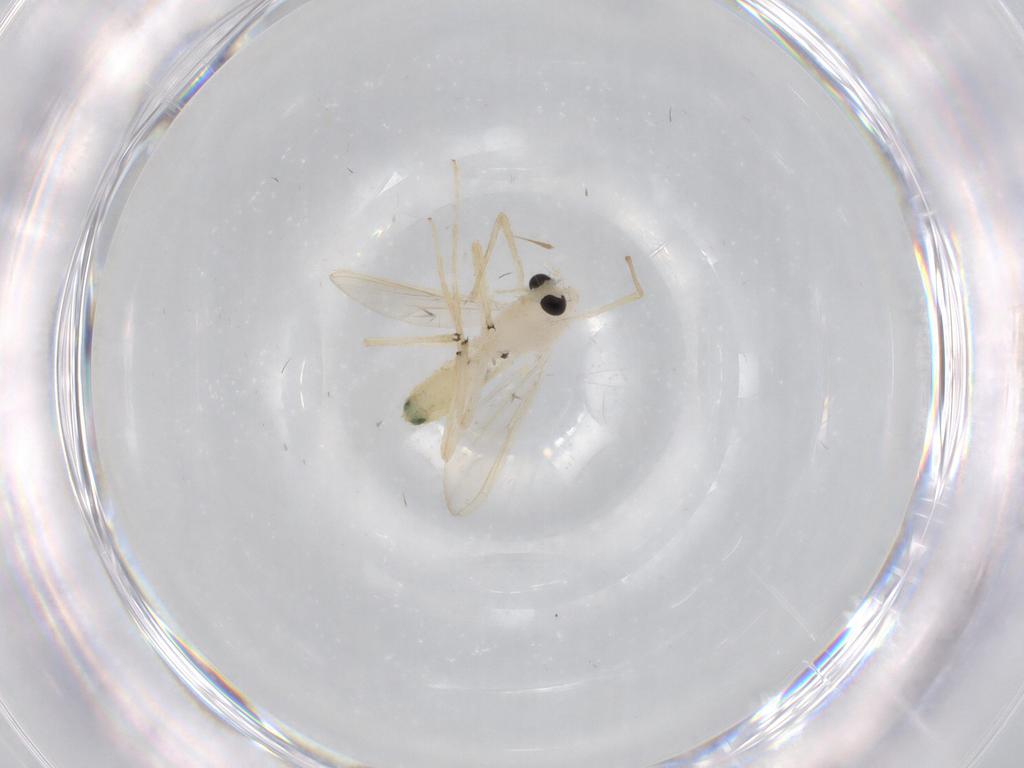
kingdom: Animalia
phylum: Arthropoda
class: Insecta
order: Diptera
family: Chironomidae
